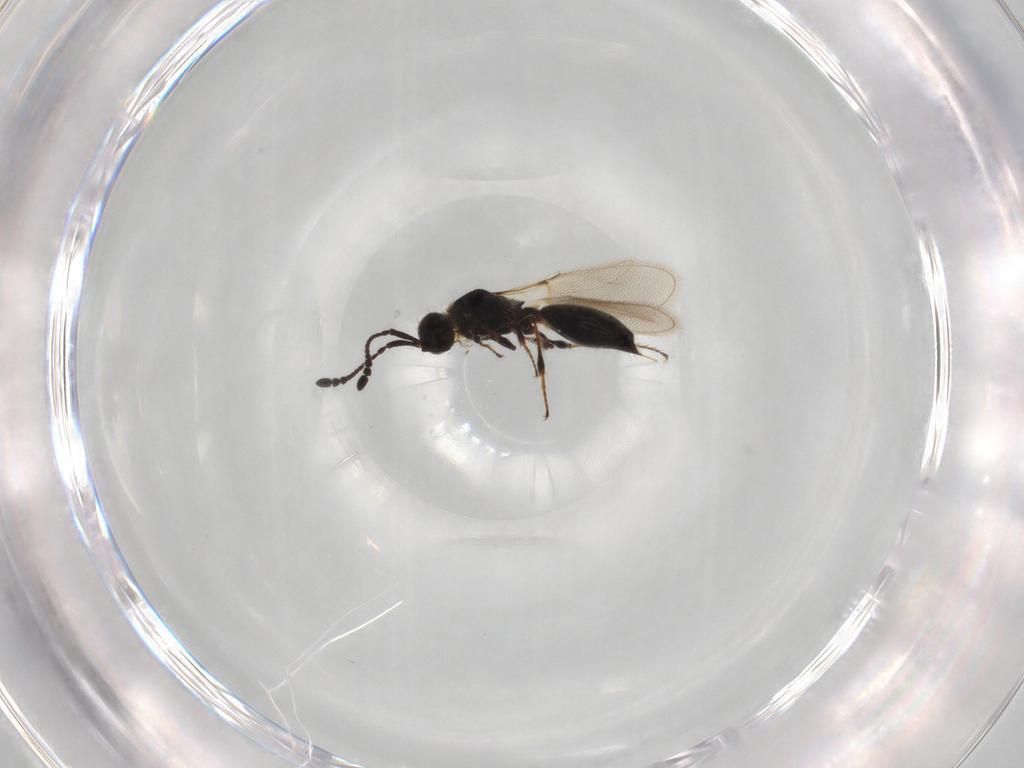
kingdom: Animalia
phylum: Arthropoda
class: Insecta
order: Hymenoptera
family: Diapriidae
